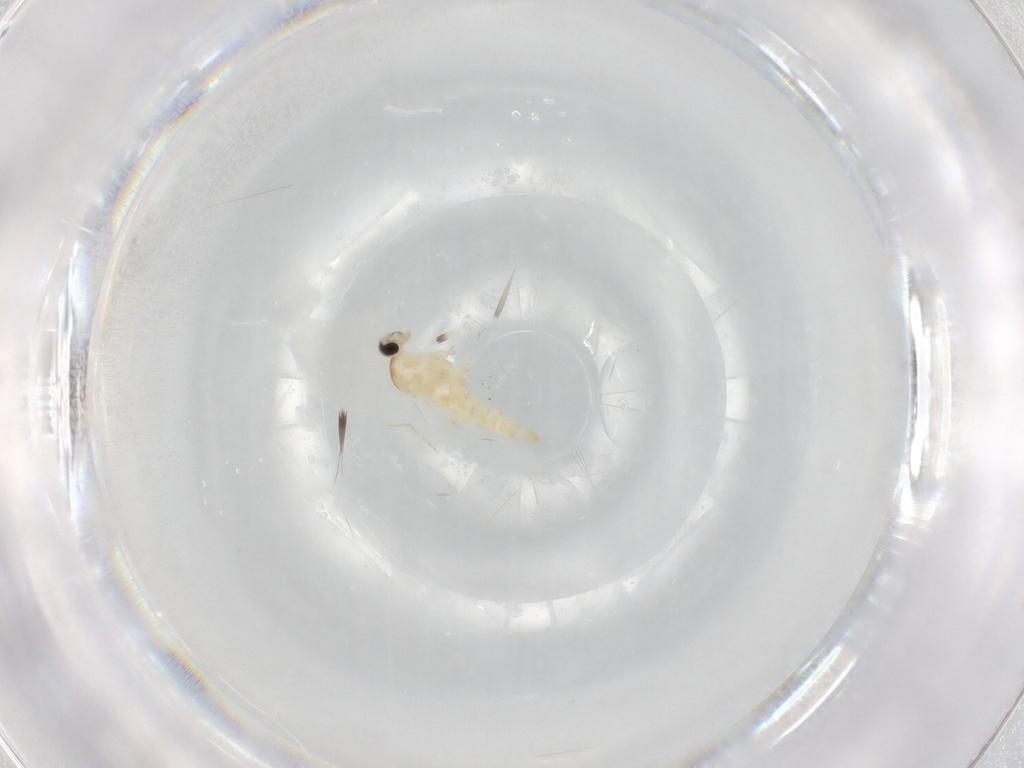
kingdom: Animalia
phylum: Arthropoda
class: Insecta
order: Diptera
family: Cecidomyiidae
